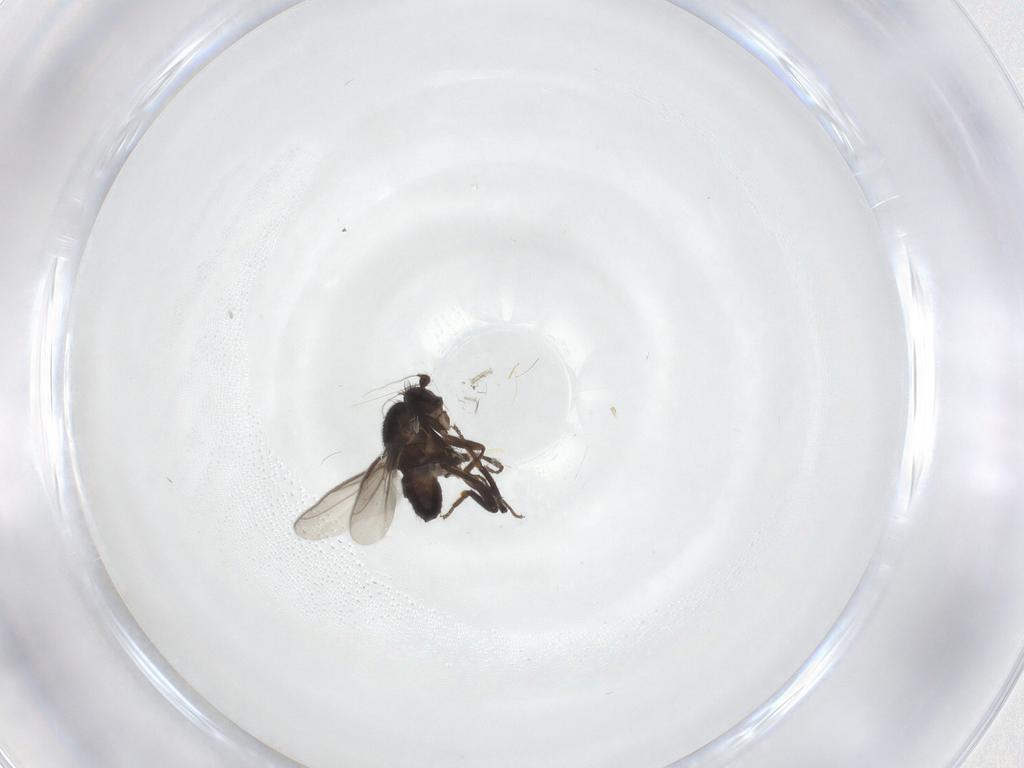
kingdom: Animalia
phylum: Arthropoda
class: Insecta
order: Diptera
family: Sphaeroceridae
